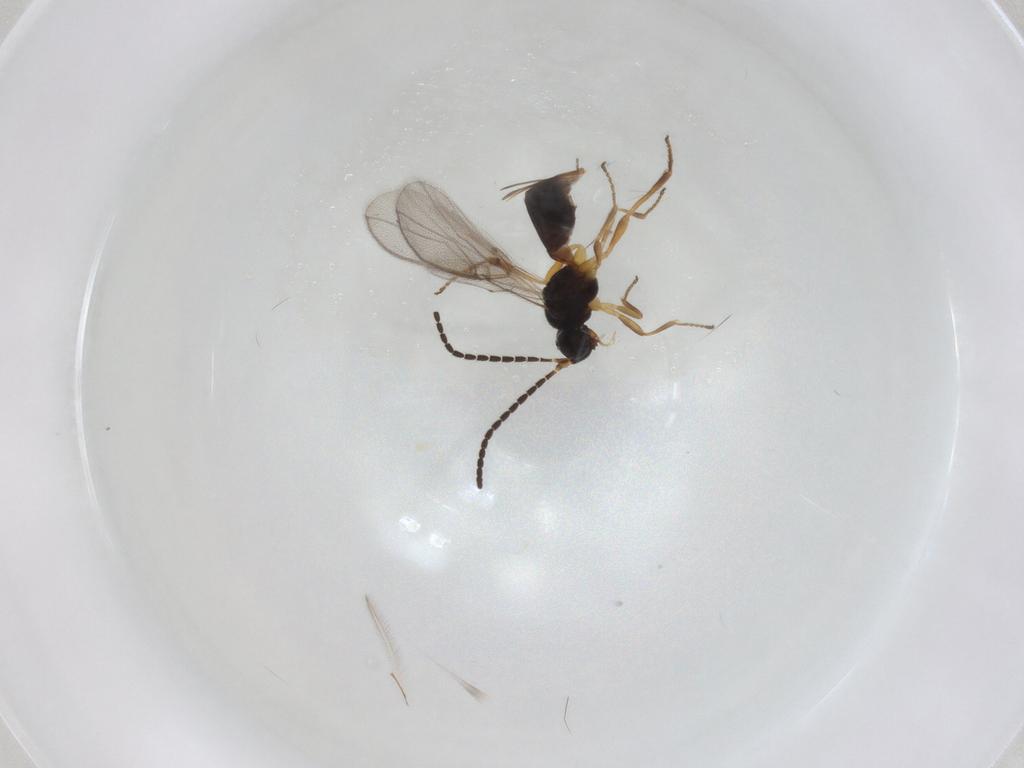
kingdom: Animalia
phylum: Arthropoda
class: Insecta
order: Hymenoptera
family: Braconidae
